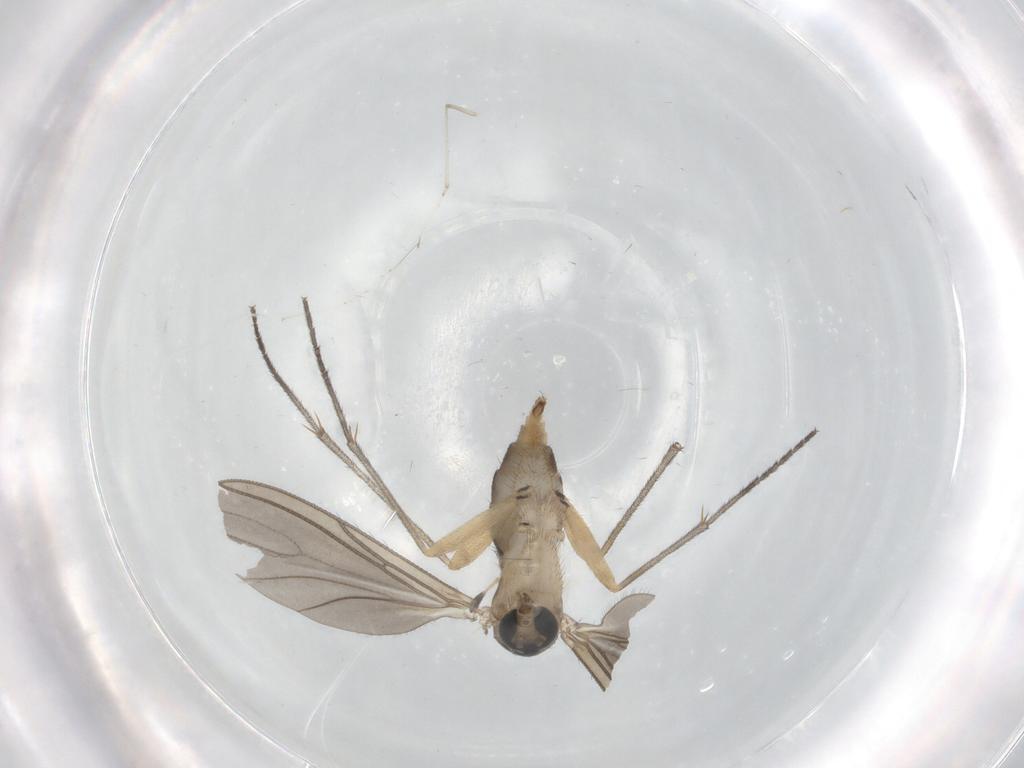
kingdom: Animalia
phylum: Arthropoda
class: Insecta
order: Diptera
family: Sciaridae
